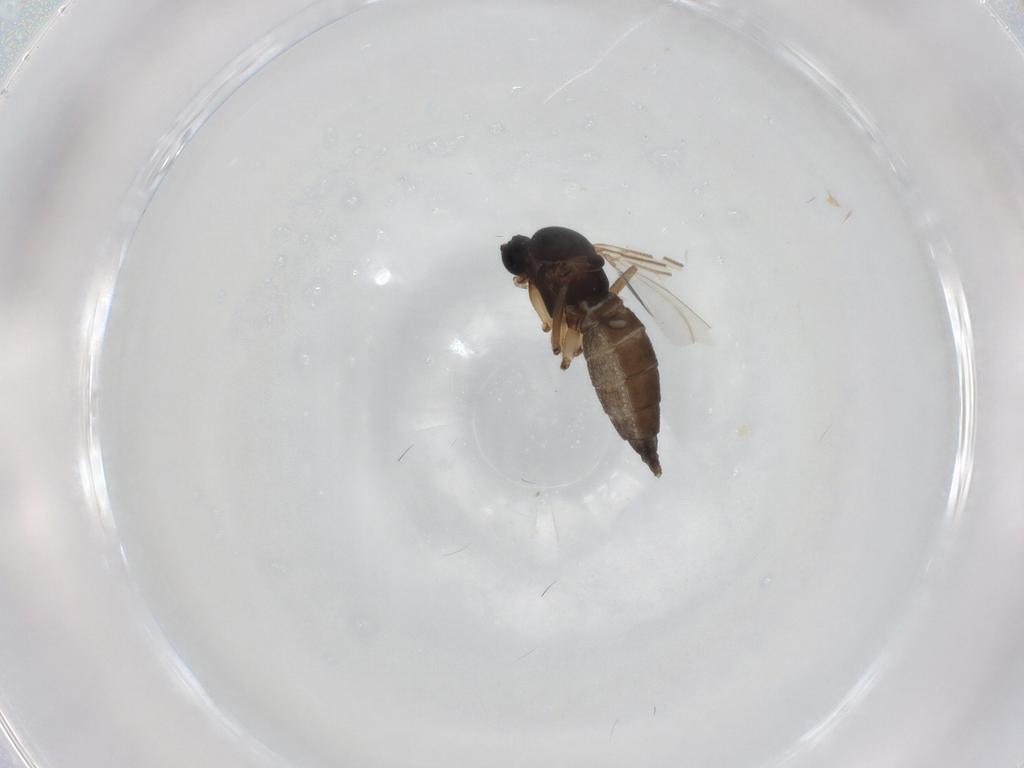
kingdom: Animalia
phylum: Arthropoda
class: Insecta
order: Diptera
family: Sciaridae
